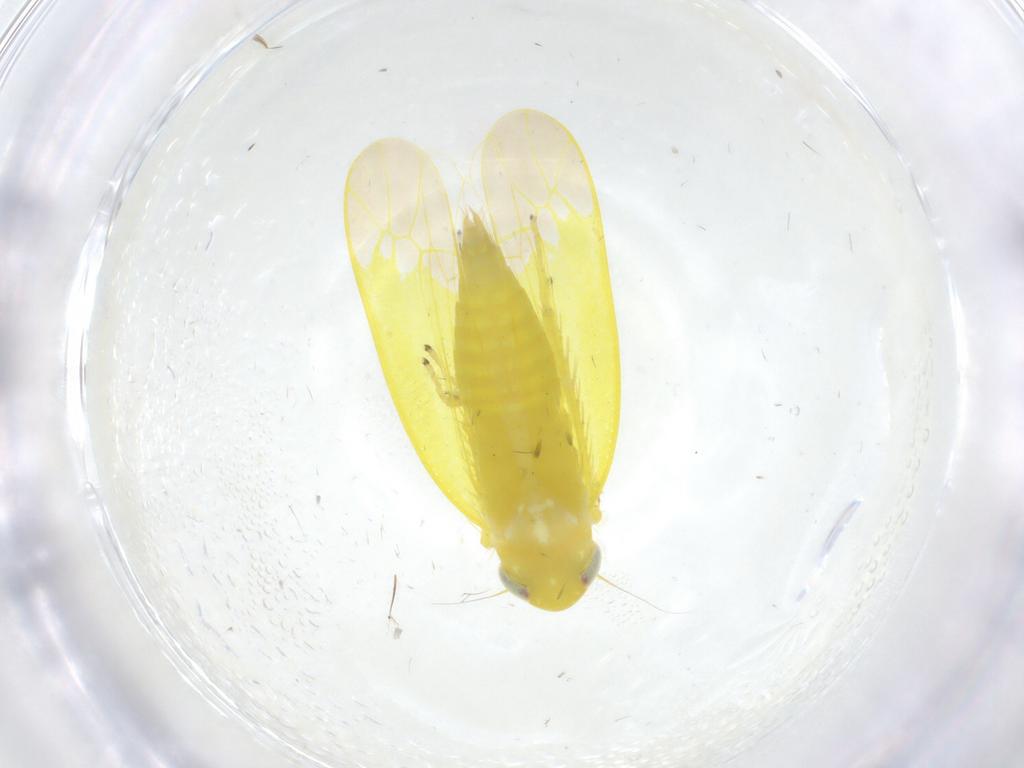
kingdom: Animalia
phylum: Arthropoda
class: Insecta
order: Hemiptera
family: Cicadellidae
